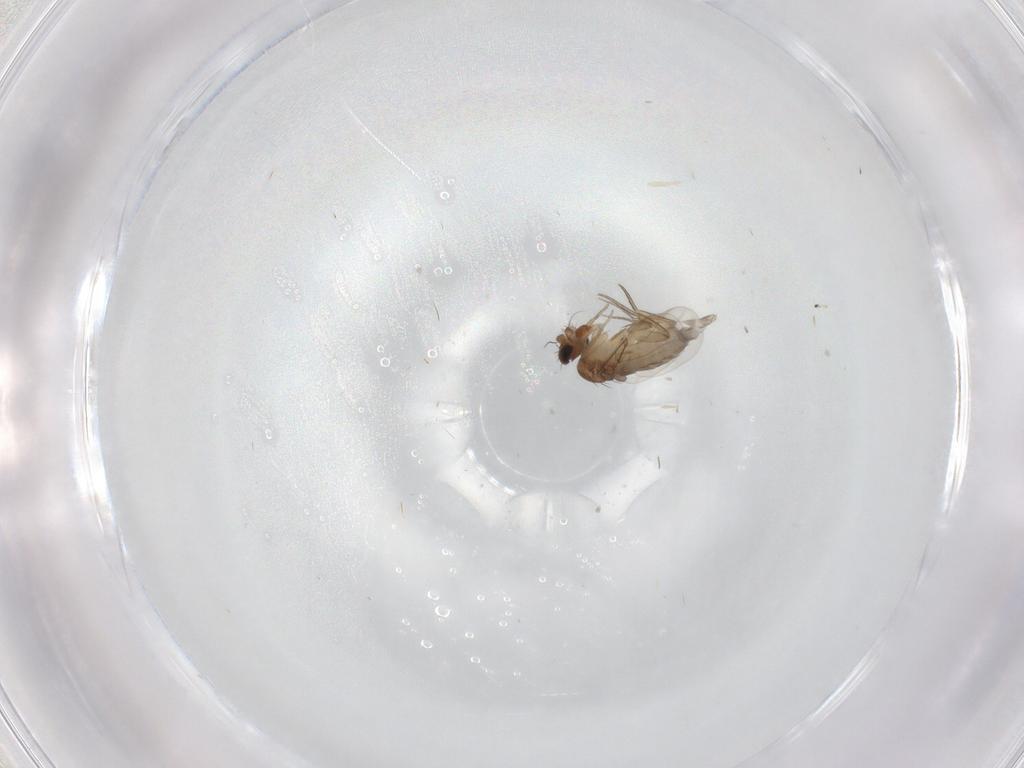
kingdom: Animalia
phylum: Arthropoda
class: Insecta
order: Diptera
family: Phoridae
